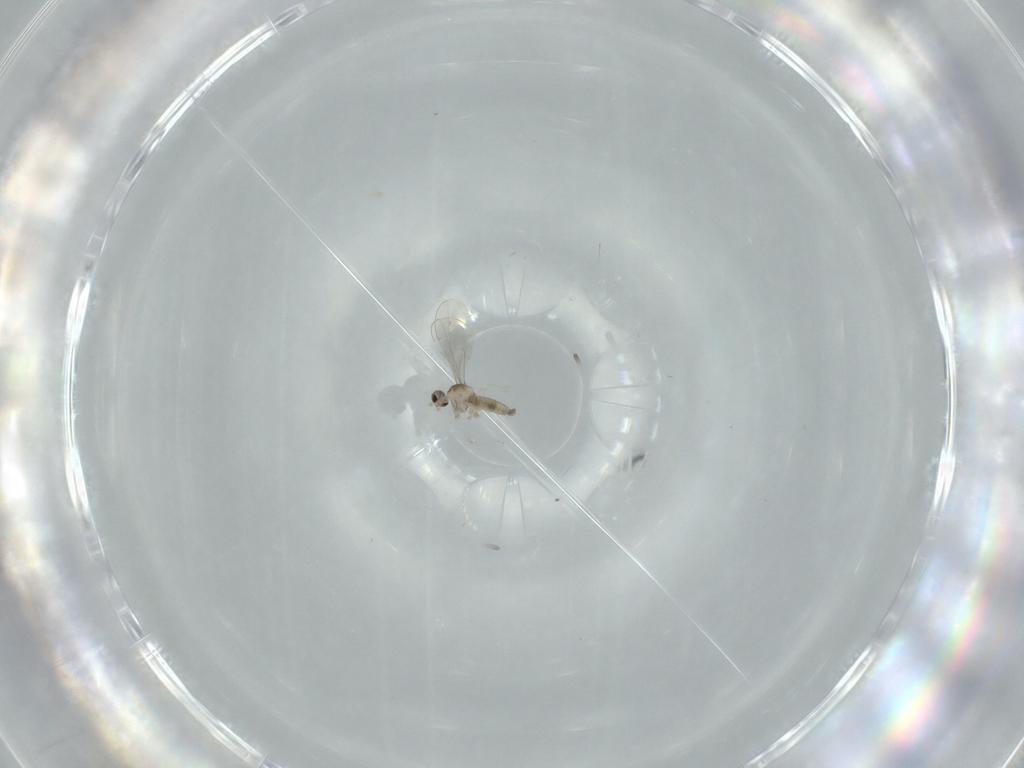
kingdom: Animalia
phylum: Arthropoda
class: Insecta
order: Diptera
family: Cecidomyiidae
